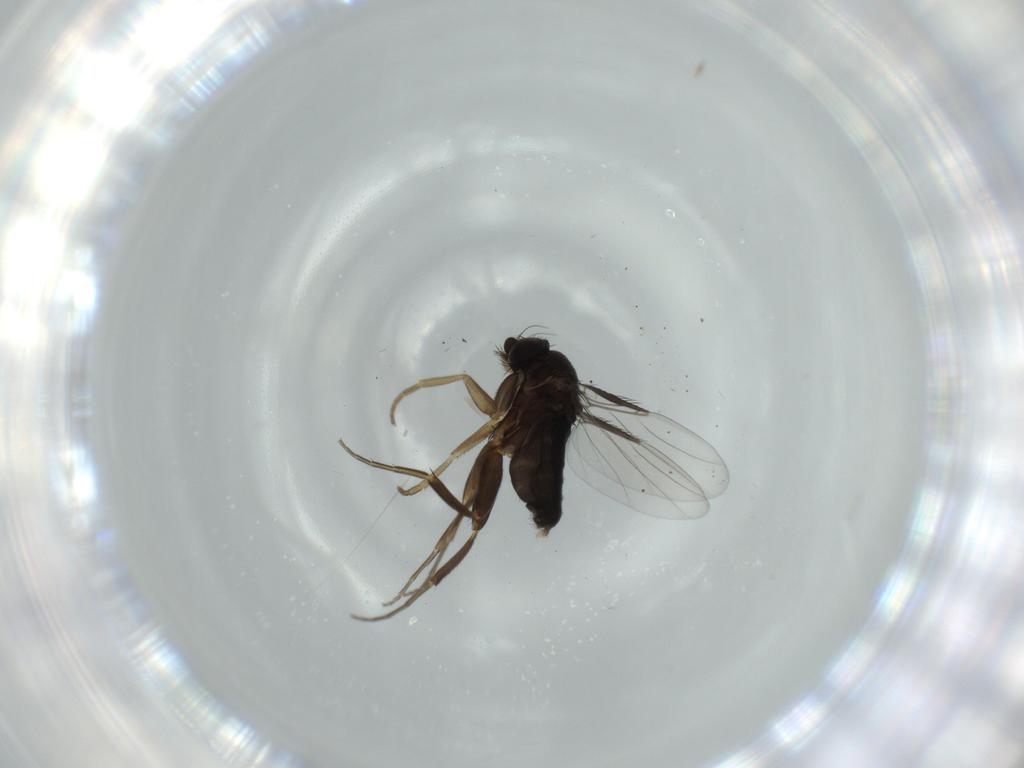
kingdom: Animalia
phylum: Arthropoda
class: Insecta
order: Diptera
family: Phoridae
